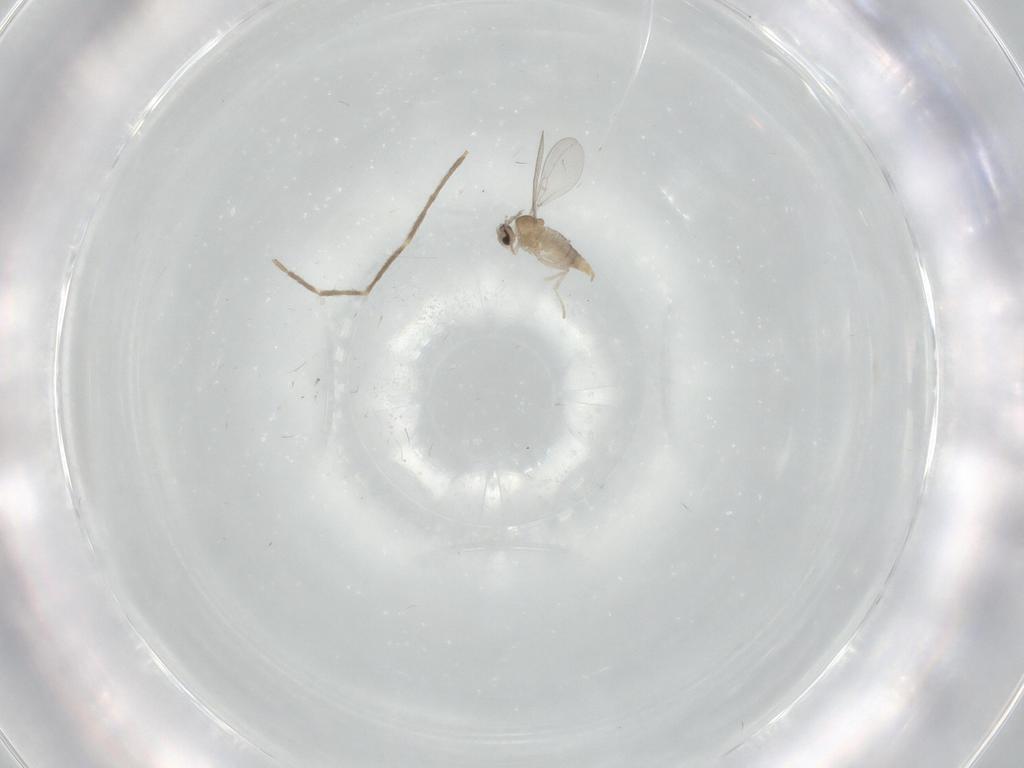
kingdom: Animalia
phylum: Arthropoda
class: Insecta
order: Diptera
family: Chironomidae
